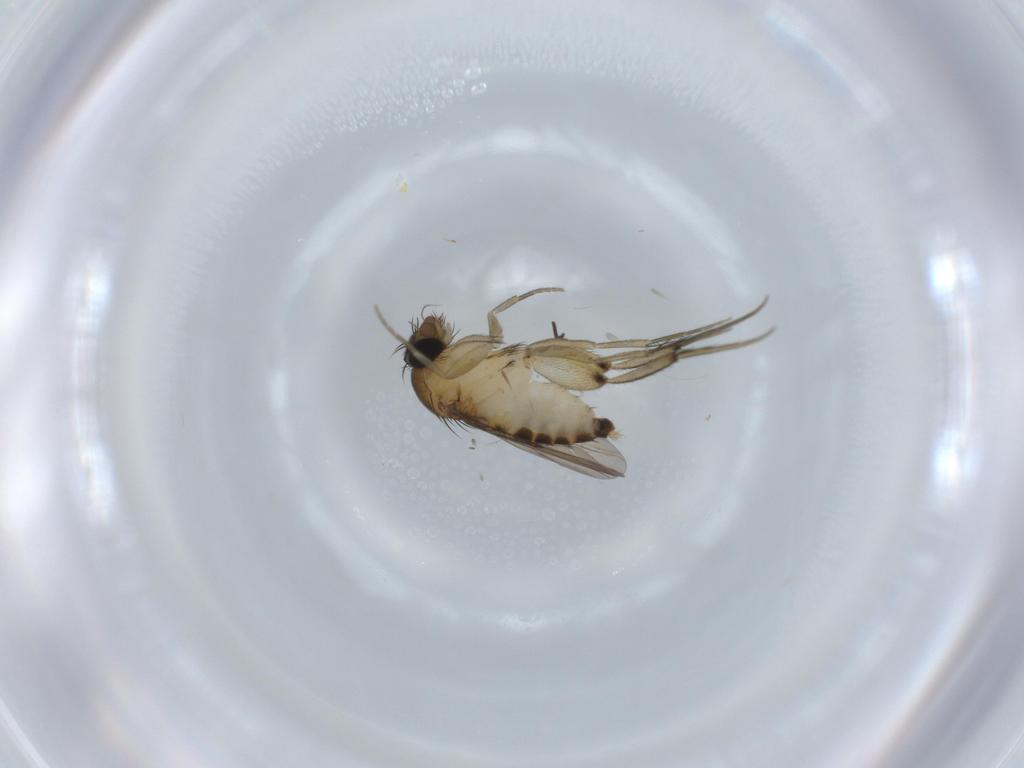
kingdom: Animalia
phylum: Arthropoda
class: Insecta
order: Diptera
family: Phoridae
